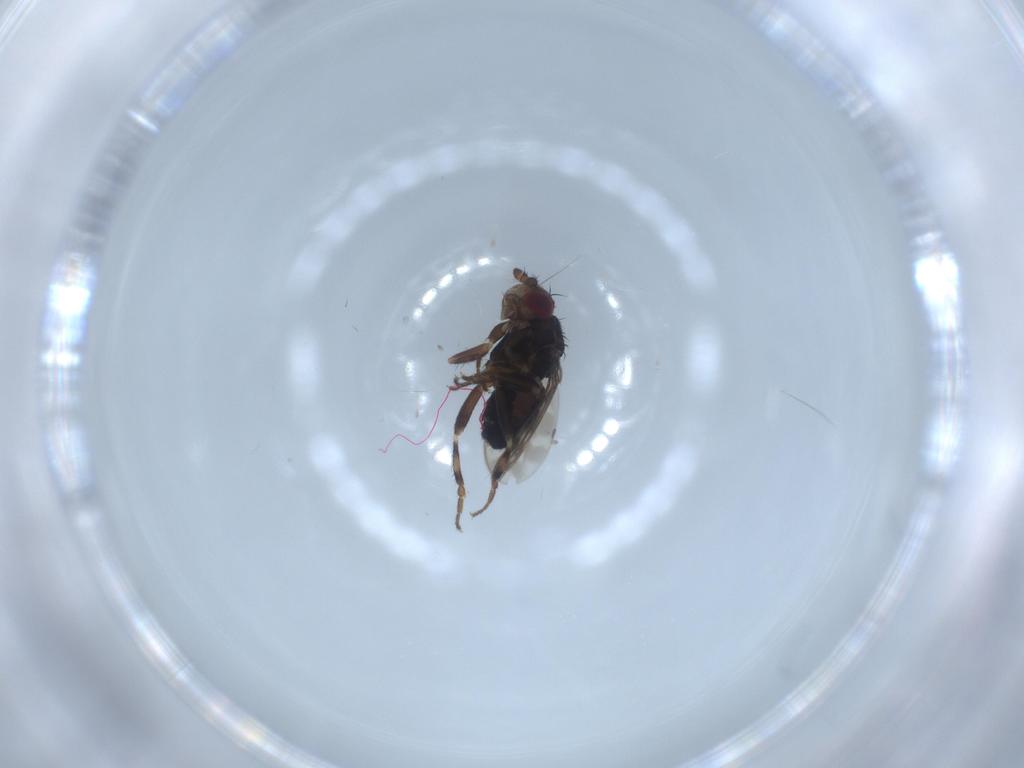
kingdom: Animalia
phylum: Arthropoda
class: Insecta
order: Diptera
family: Sphaeroceridae
